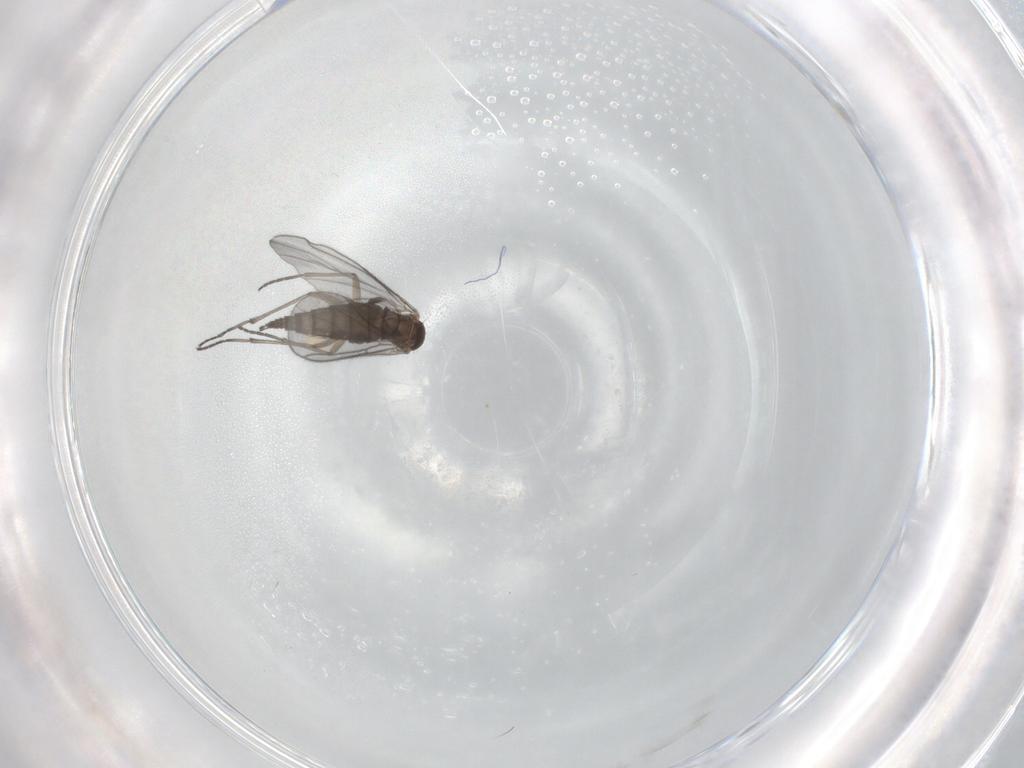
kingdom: Animalia
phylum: Arthropoda
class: Insecta
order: Diptera
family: Sciaridae
